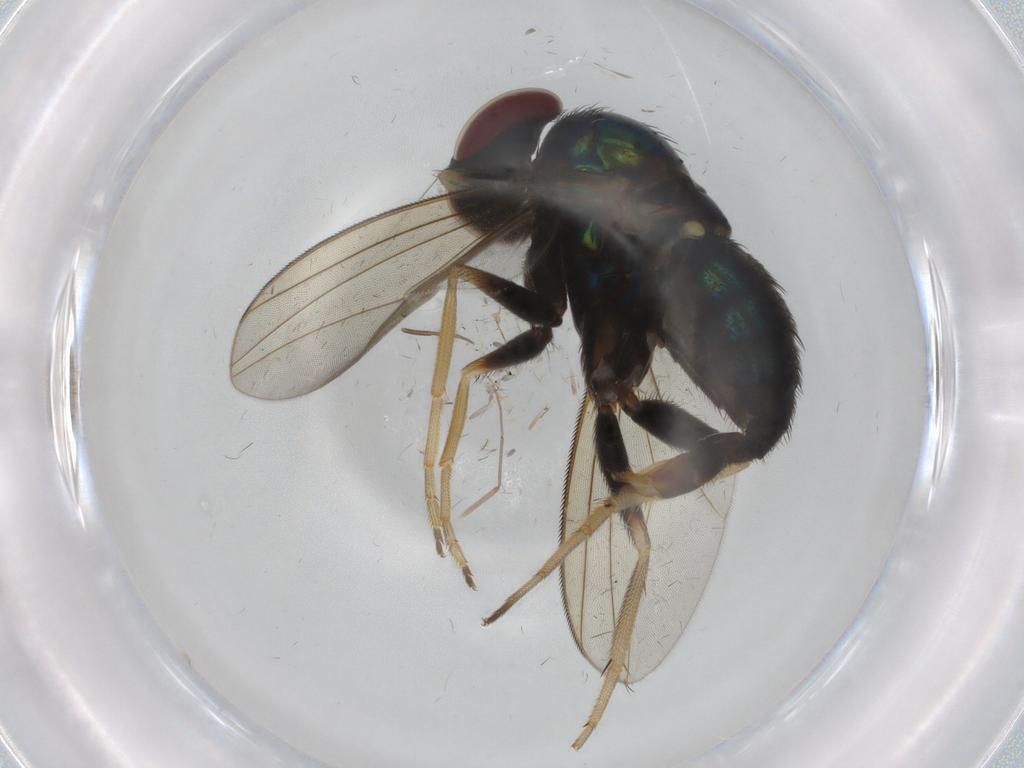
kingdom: Animalia
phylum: Arthropoda
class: Insecta
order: Diptera
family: Dolichopodidae
